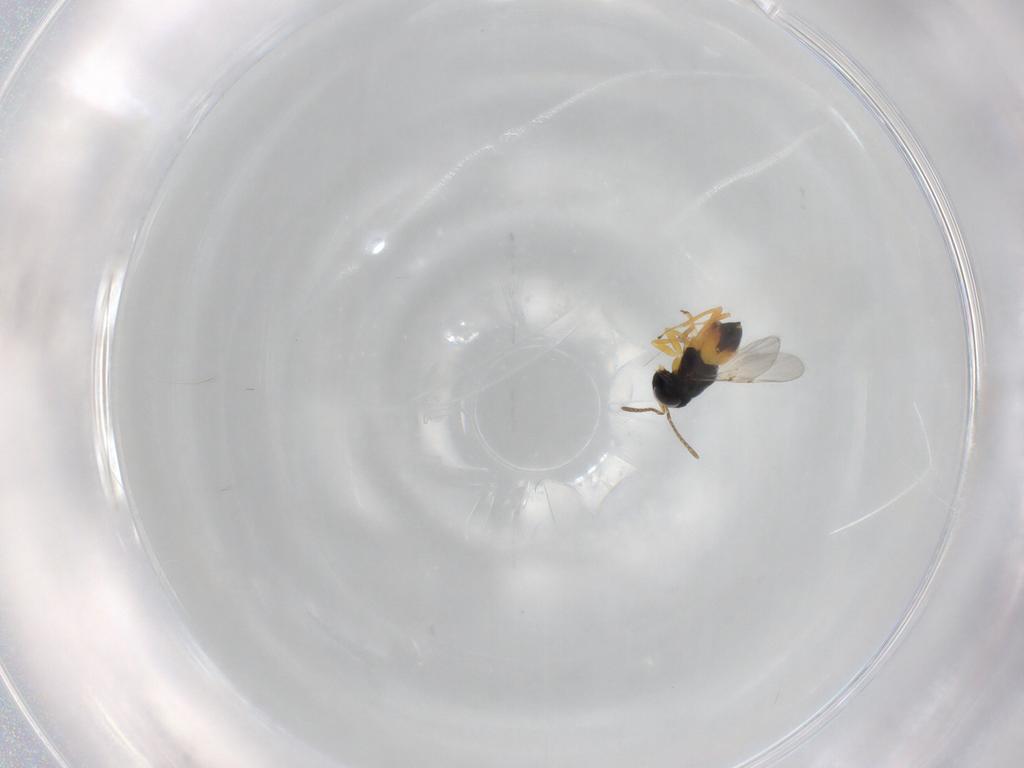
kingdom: Animalia
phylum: Arthropoda
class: Insecta
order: Hymenoptera
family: Encyrtidae
